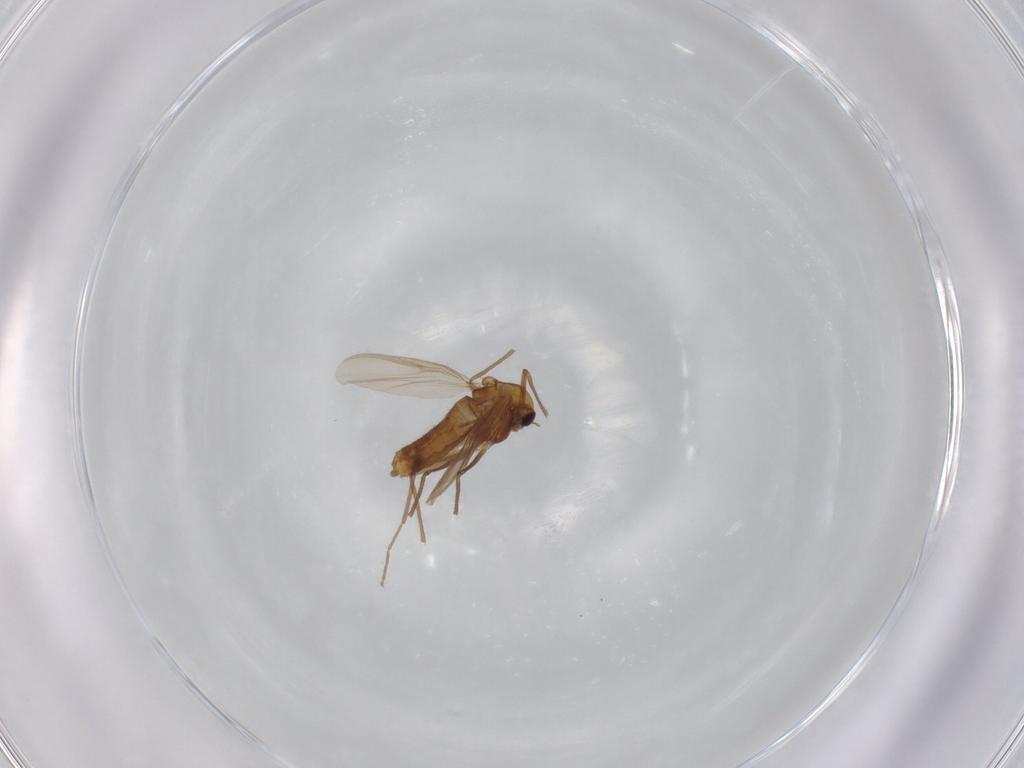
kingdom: Animalia
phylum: Arthropoda
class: Insecta
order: Diptera
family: Chironomidae
